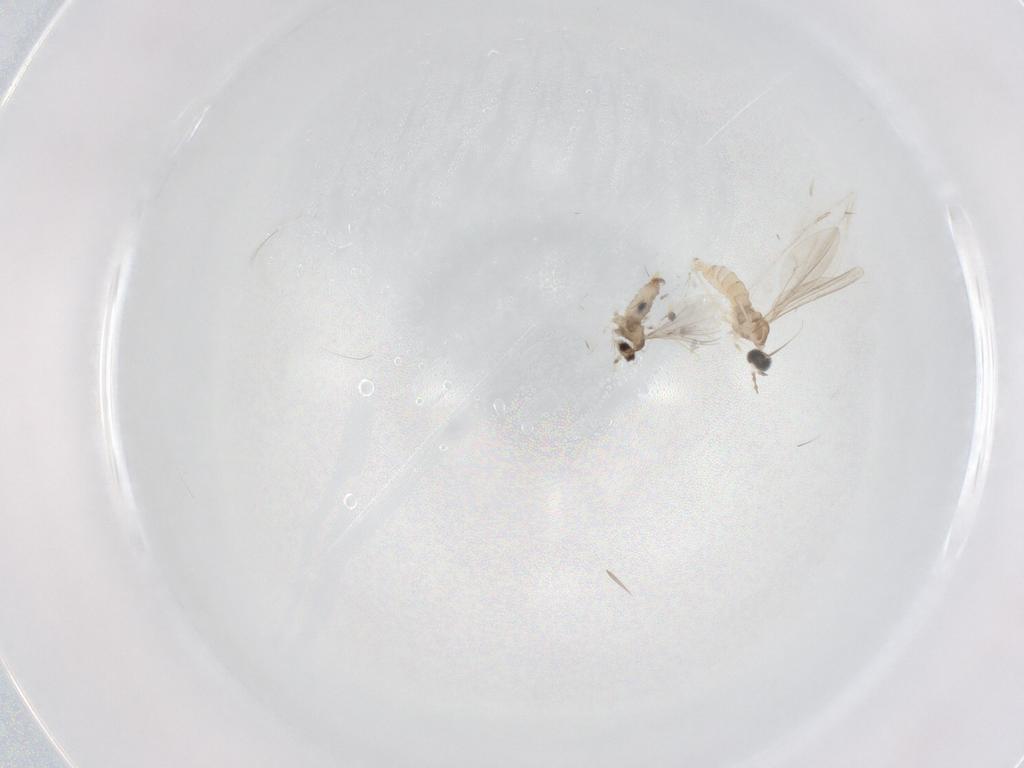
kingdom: Animalia
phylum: Arthropoda
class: Insecta
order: Diptera
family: Cecidomyiidae
